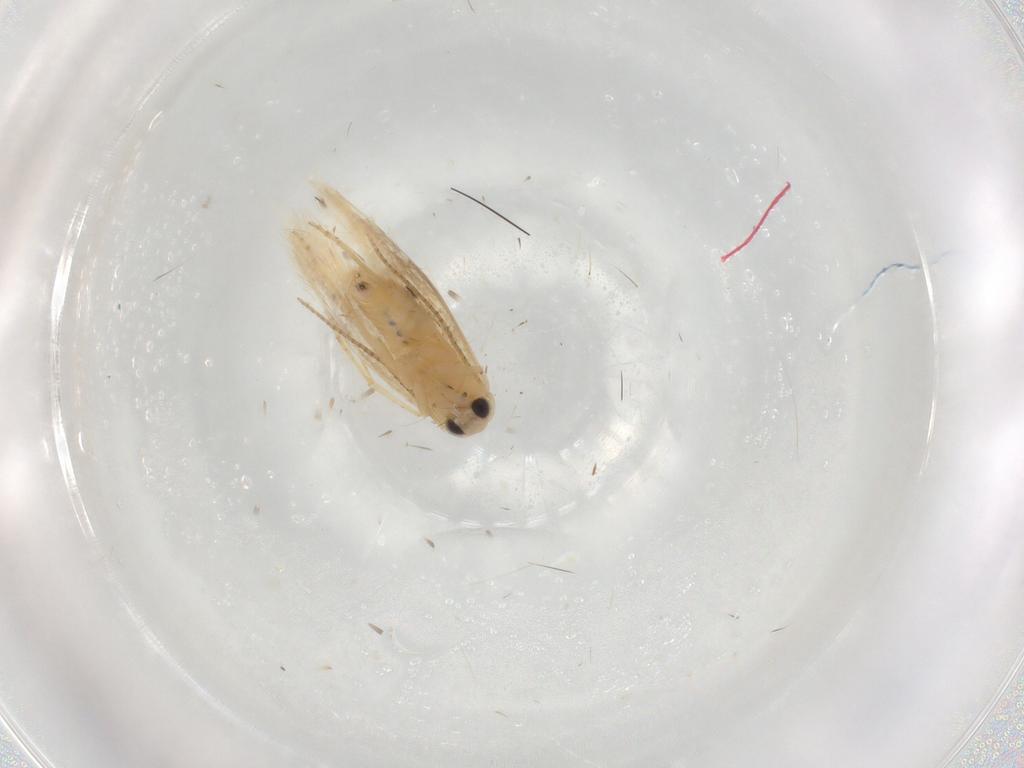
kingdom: Animalia
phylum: Arthropoda
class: Insecta
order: Lepidoptera
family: Depressariidae
